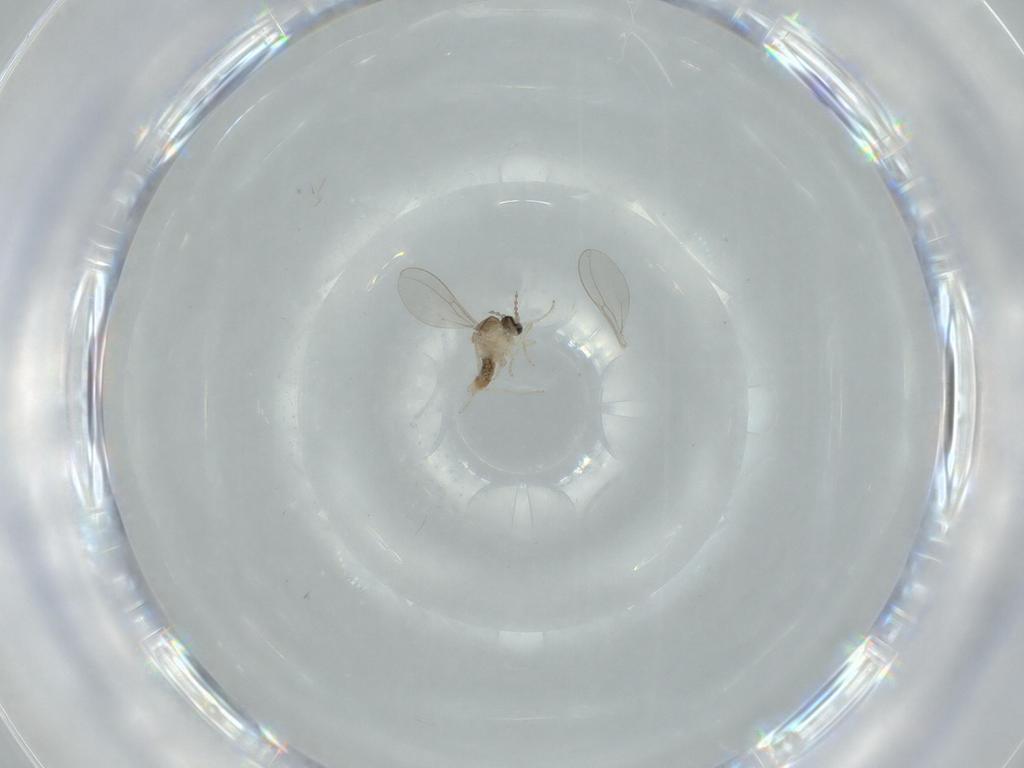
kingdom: Animalia
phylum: Arthropoda
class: Insecta
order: Diptera
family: Cecidomyiidae
